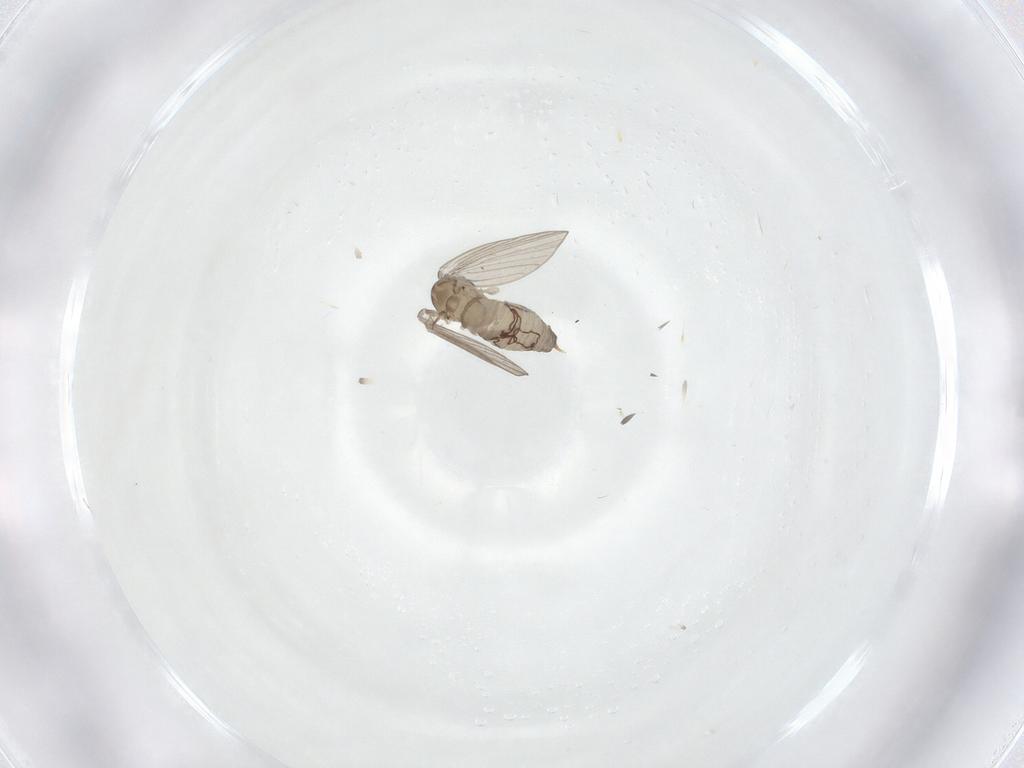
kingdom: Animalia
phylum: Arthropoda
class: Insecta
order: Diptera
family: Psychodidae
